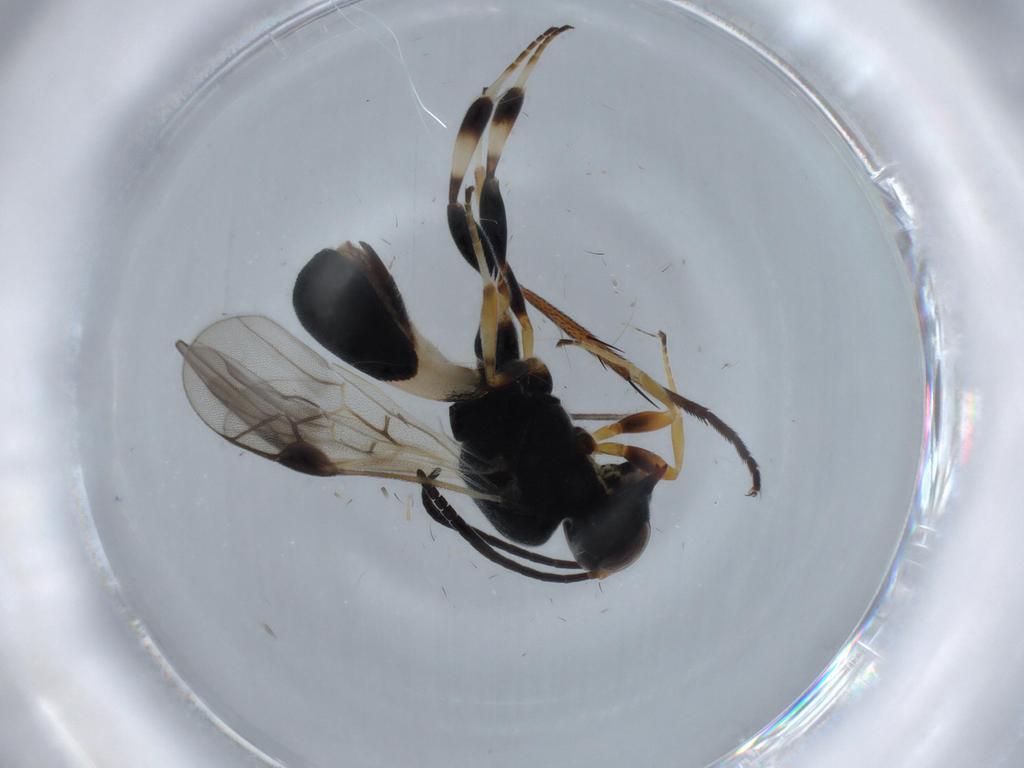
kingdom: Animalia
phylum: Arthropoda
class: Insecta
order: Hymenoptera
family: Braconidae
